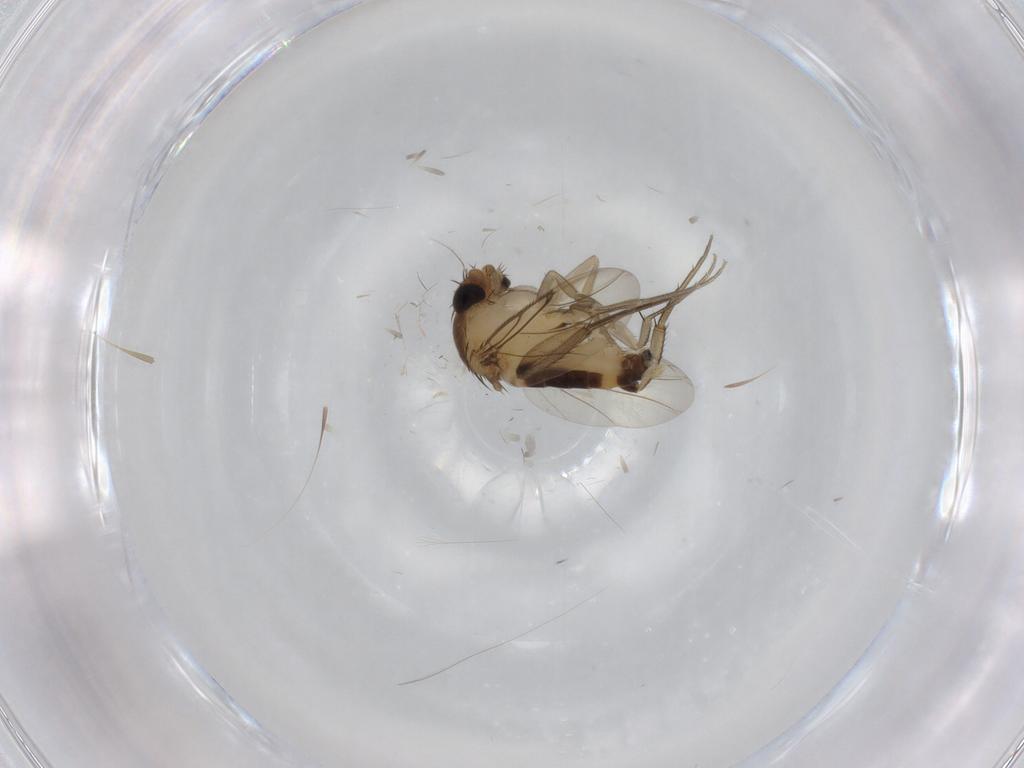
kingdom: Animalia
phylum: Arthropoda
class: Insecta
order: Diptera
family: Phoridae
